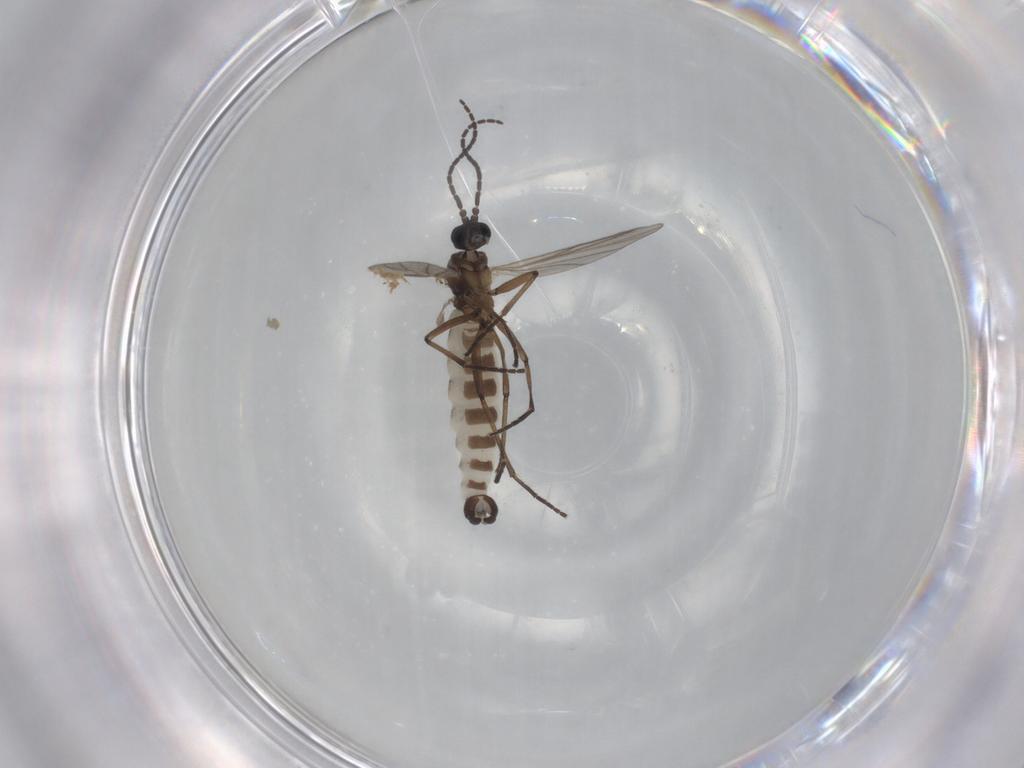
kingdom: Animalia
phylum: Arthropoda
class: Insecta
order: Diptera
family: Sciaridae
